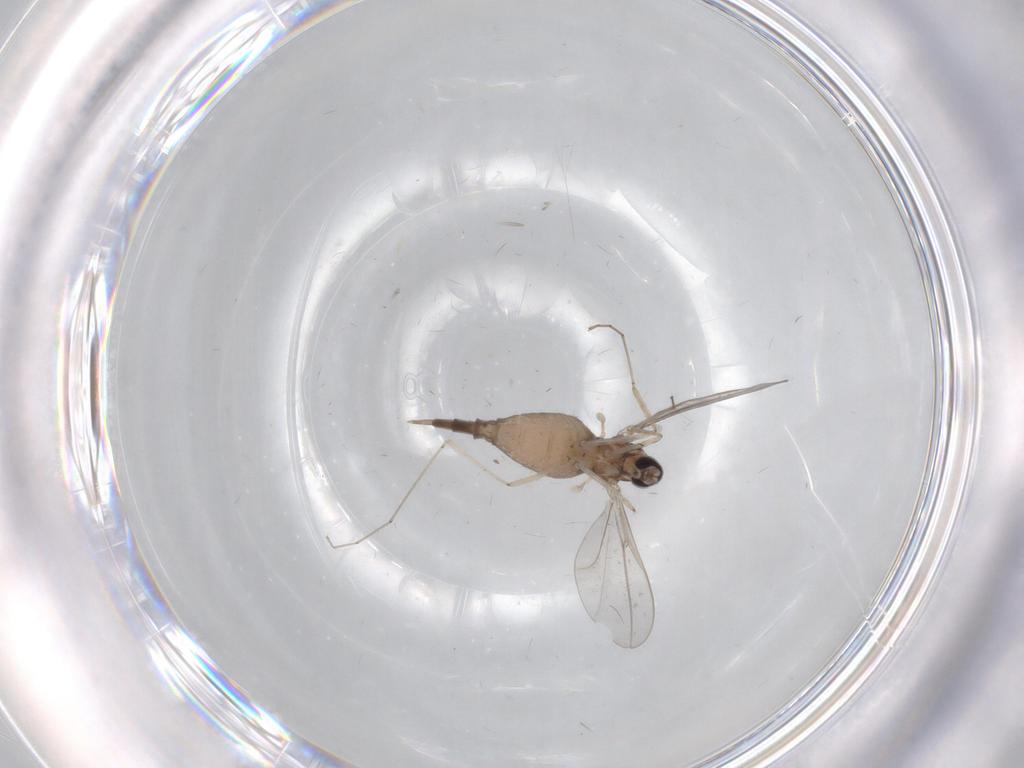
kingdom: Animalia
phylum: Arthropoda
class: Insecta
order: Diptera
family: Cecidomyiidae
